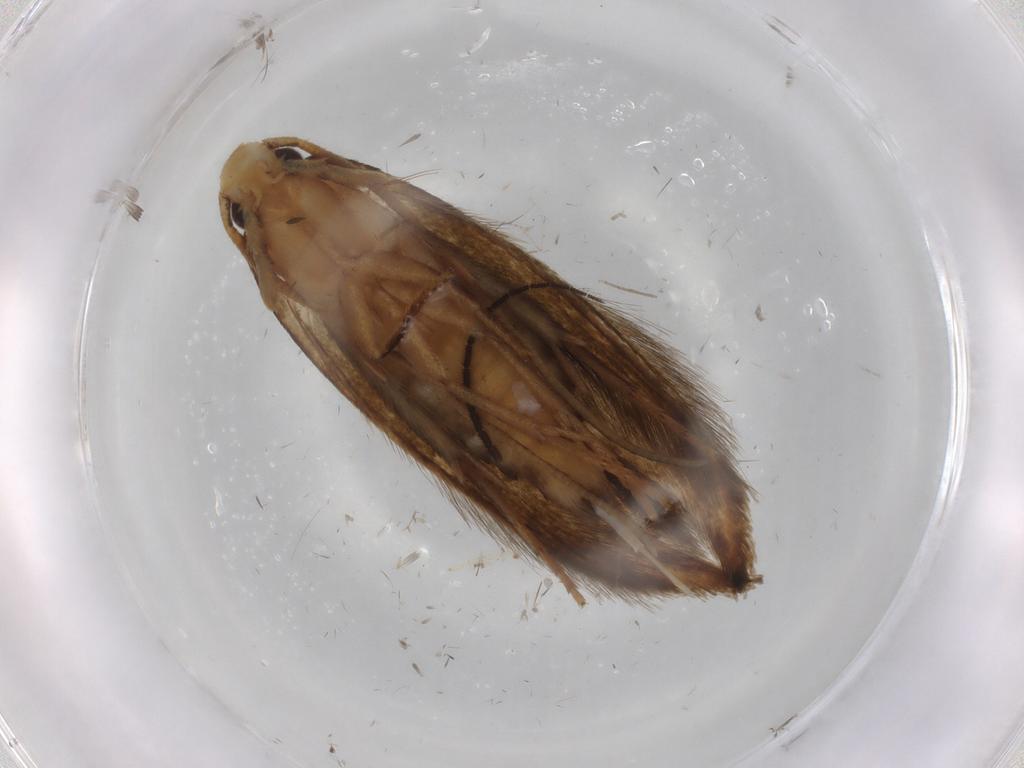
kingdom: Animalia
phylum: Arthropoda
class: Insecta
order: Lepidoptera
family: Tineidae
